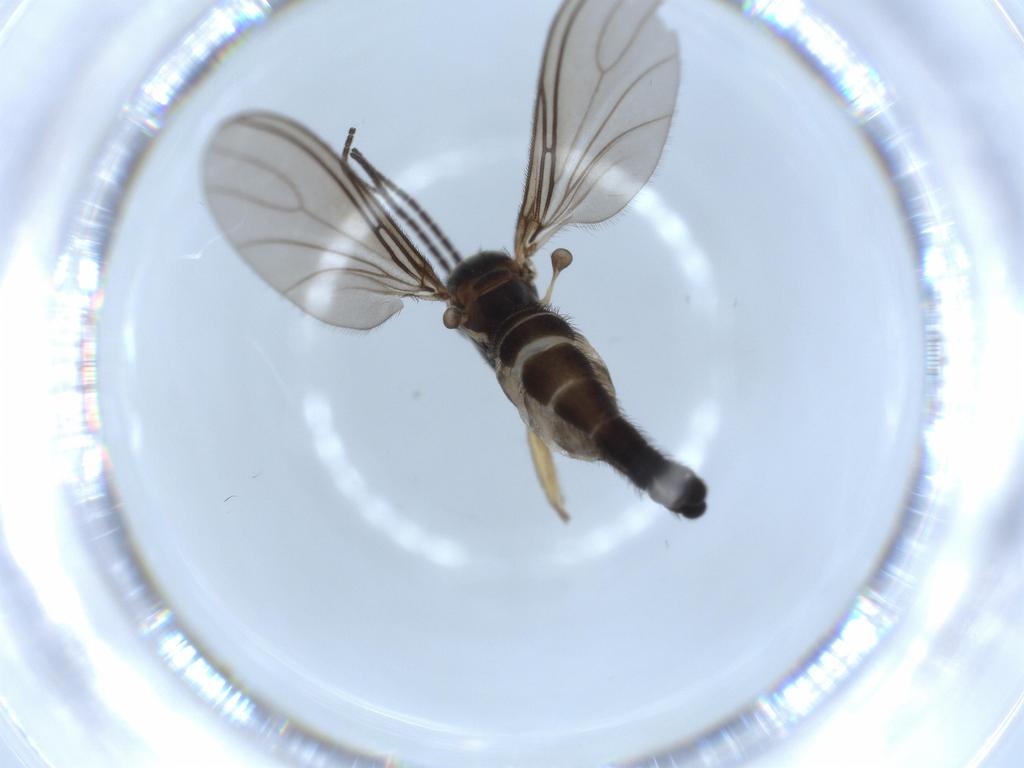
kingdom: Animalia
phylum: Arthropoda
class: Insecta
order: Diptera
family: Sciaridae
